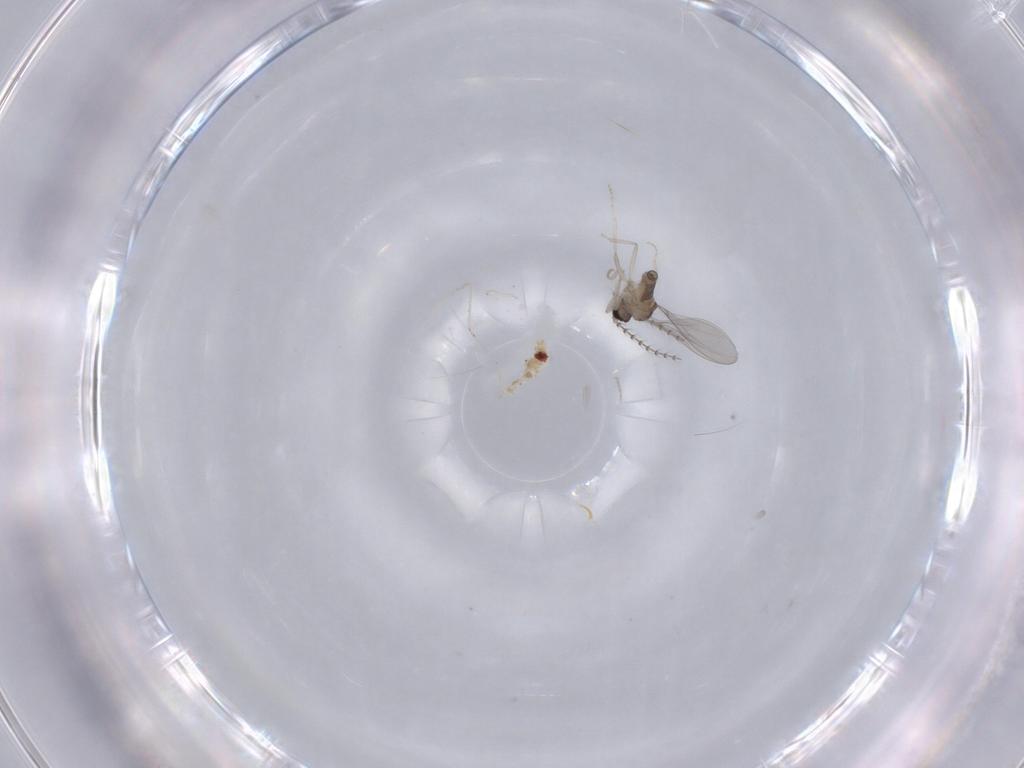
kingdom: Animalia
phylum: Arthropoda
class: Insecta
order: Diptera
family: Cecidomyiidae
